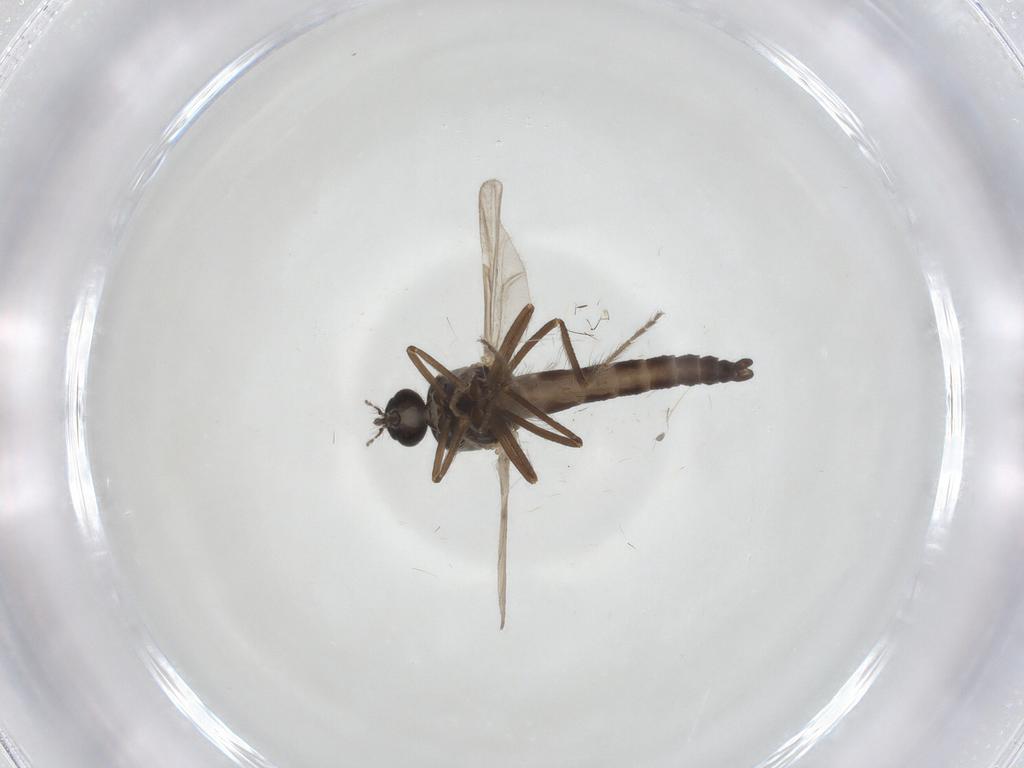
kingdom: Animalia
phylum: Arthropoda
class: Insecta
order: Diptera
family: Ceratopogonidae
